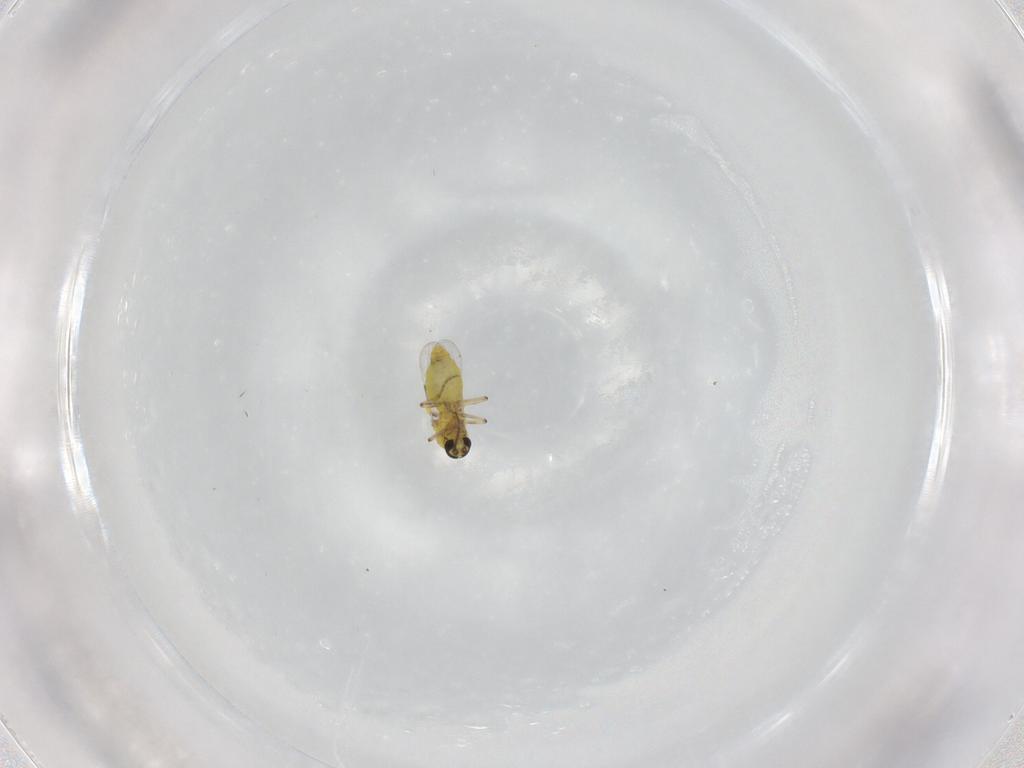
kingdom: Animalia
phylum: Arthropoda
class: Insecta
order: Diptera
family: Ceratopogonidae
